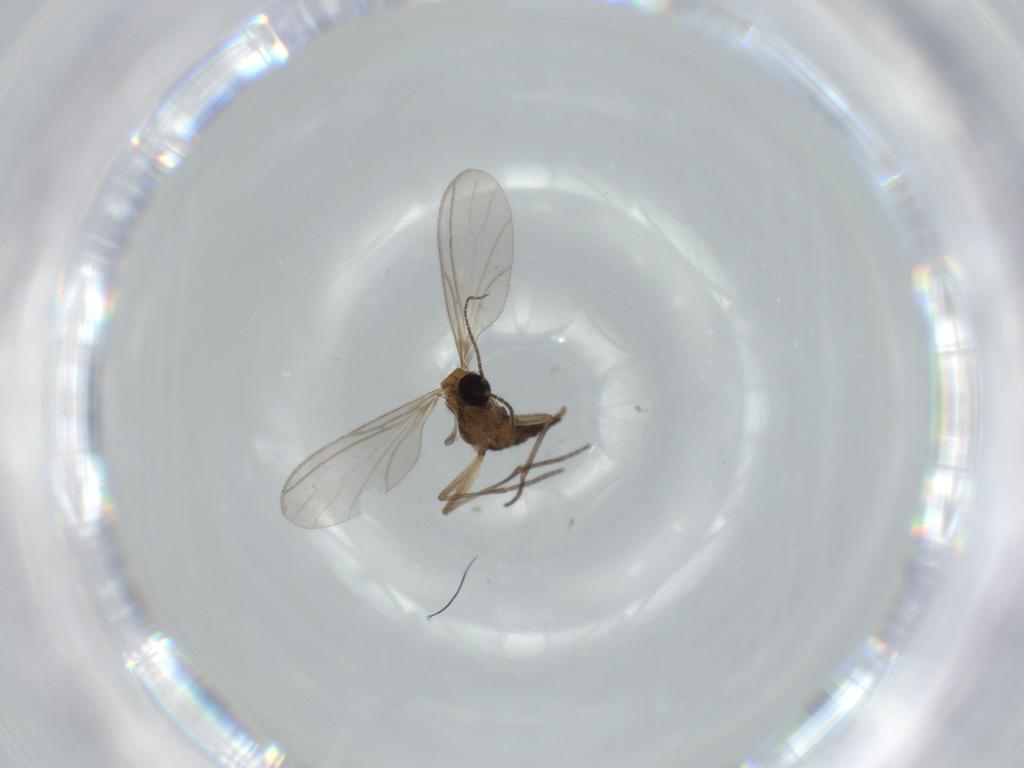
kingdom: Animalia
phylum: Arthropoda
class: Insecta
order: Diptera
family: Sciaridae
